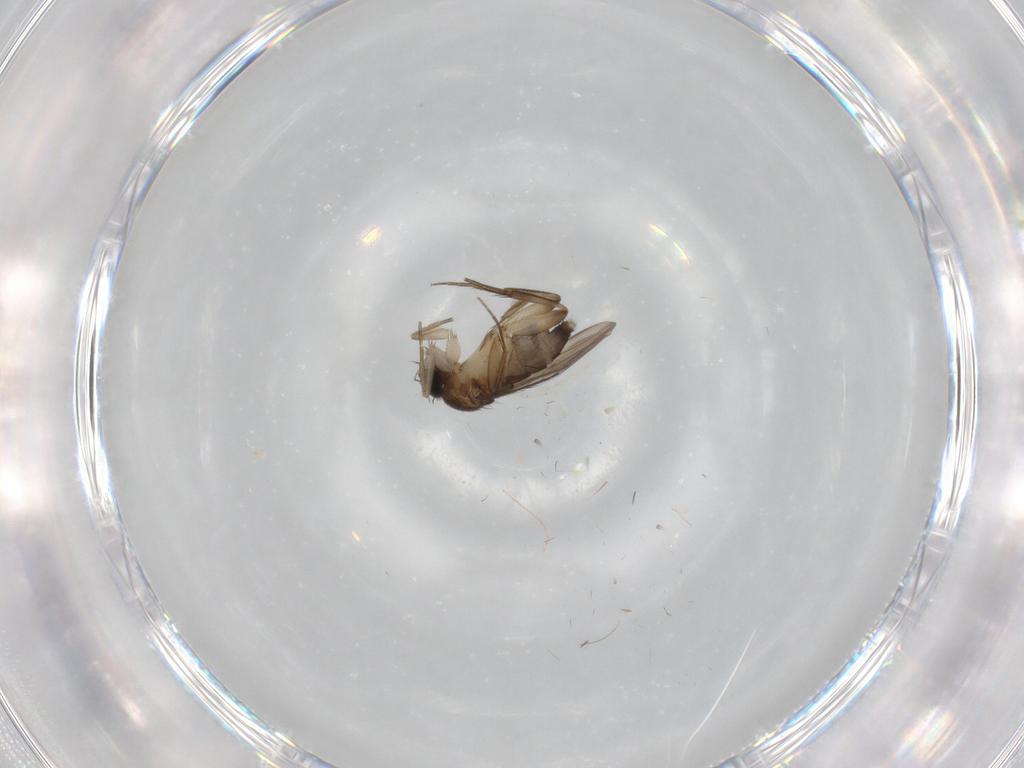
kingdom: Animalia
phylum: Arthropoda
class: Insecta
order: Diptera
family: Phoridae
